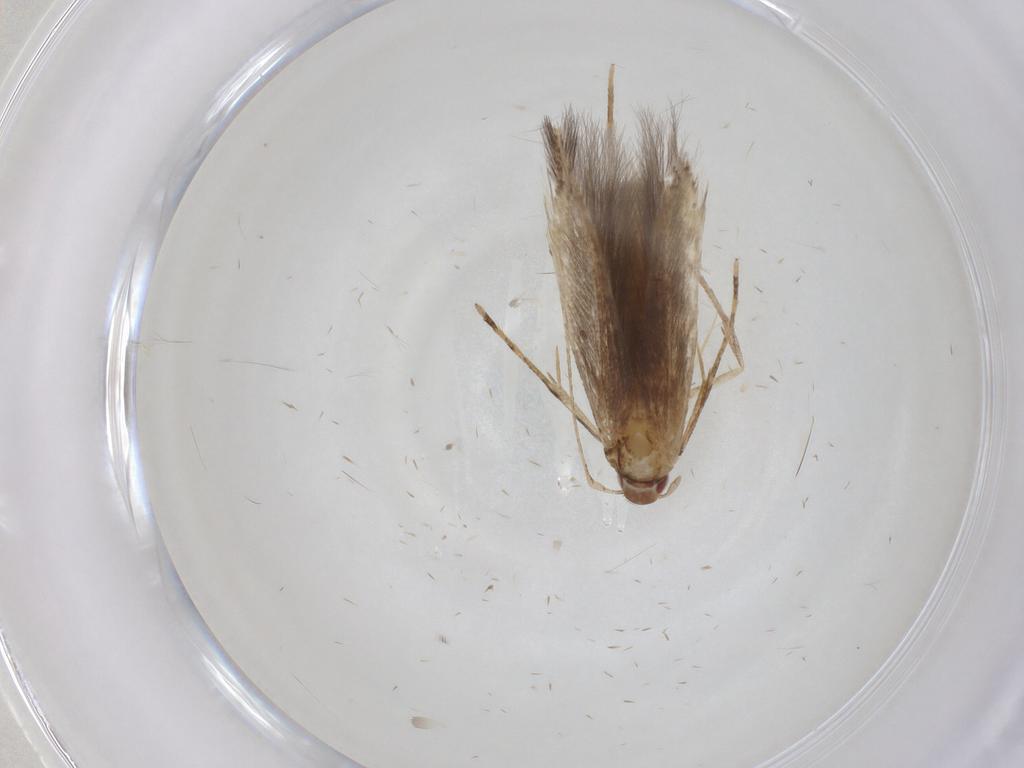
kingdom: Animalia
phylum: Arthropoda
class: Insecta
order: Lepidoptera
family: Cosmopterigidae
